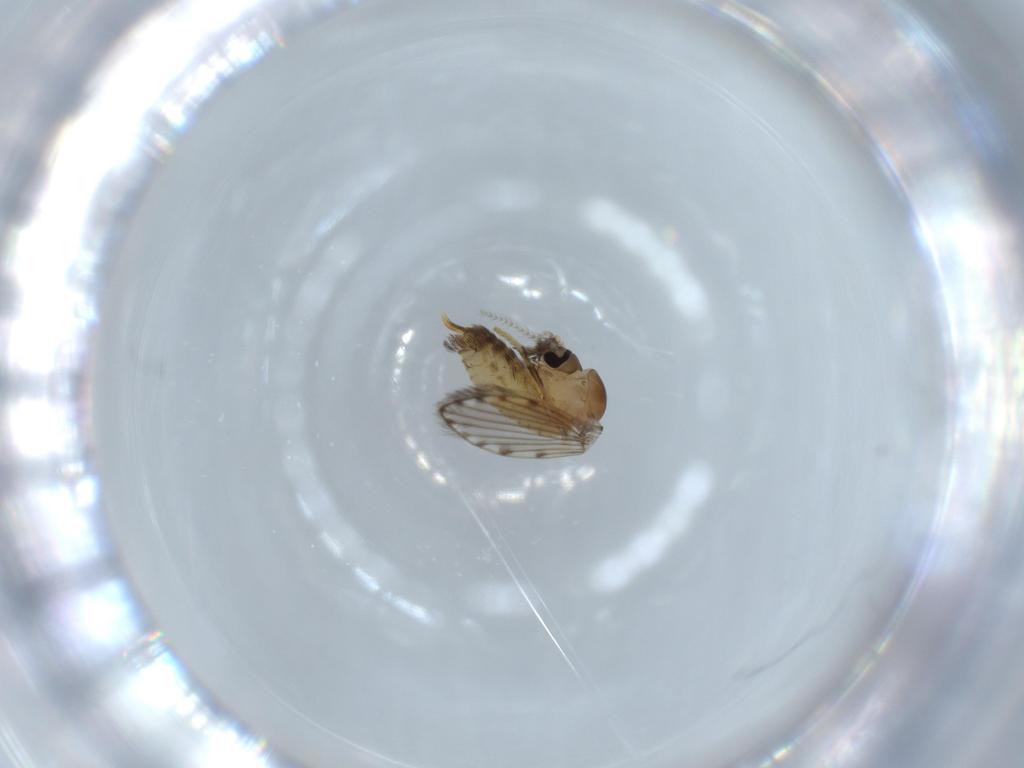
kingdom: Animalia
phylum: Arthropoda
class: Insecta
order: Diptera
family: Psychodidae
